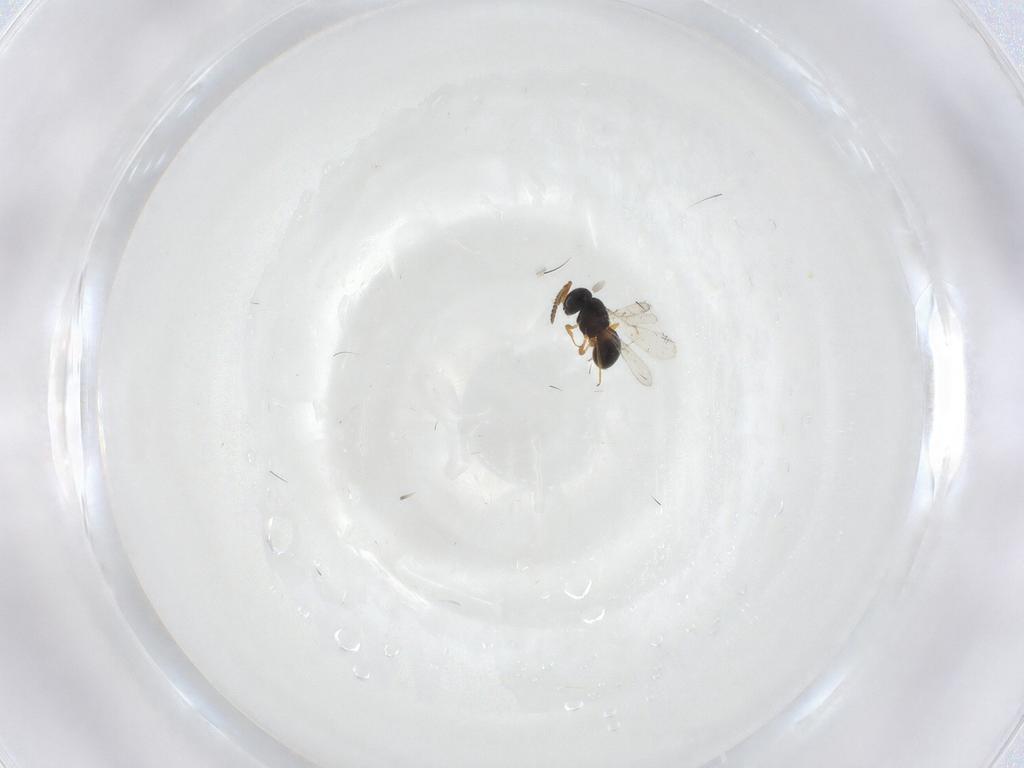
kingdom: Animalia
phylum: Arthropoda
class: Insecta
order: Hymenoptera
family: Scelionidae
